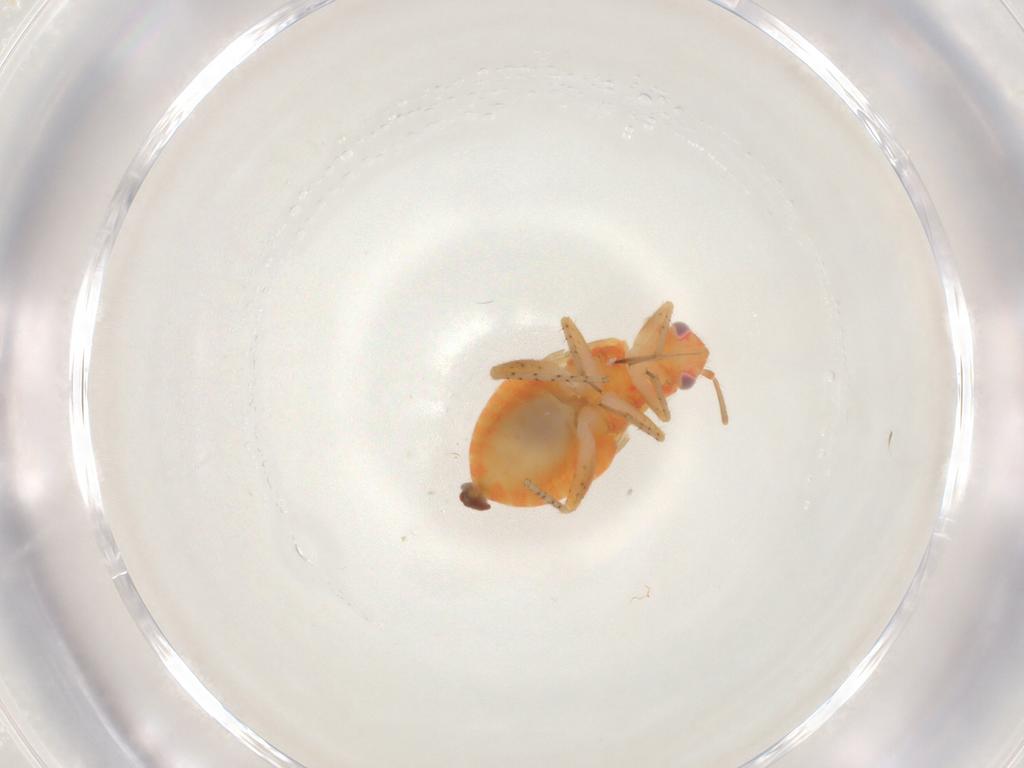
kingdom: Animalia
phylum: Arthropoda
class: Insecta
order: Hemiptera
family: Miridae
